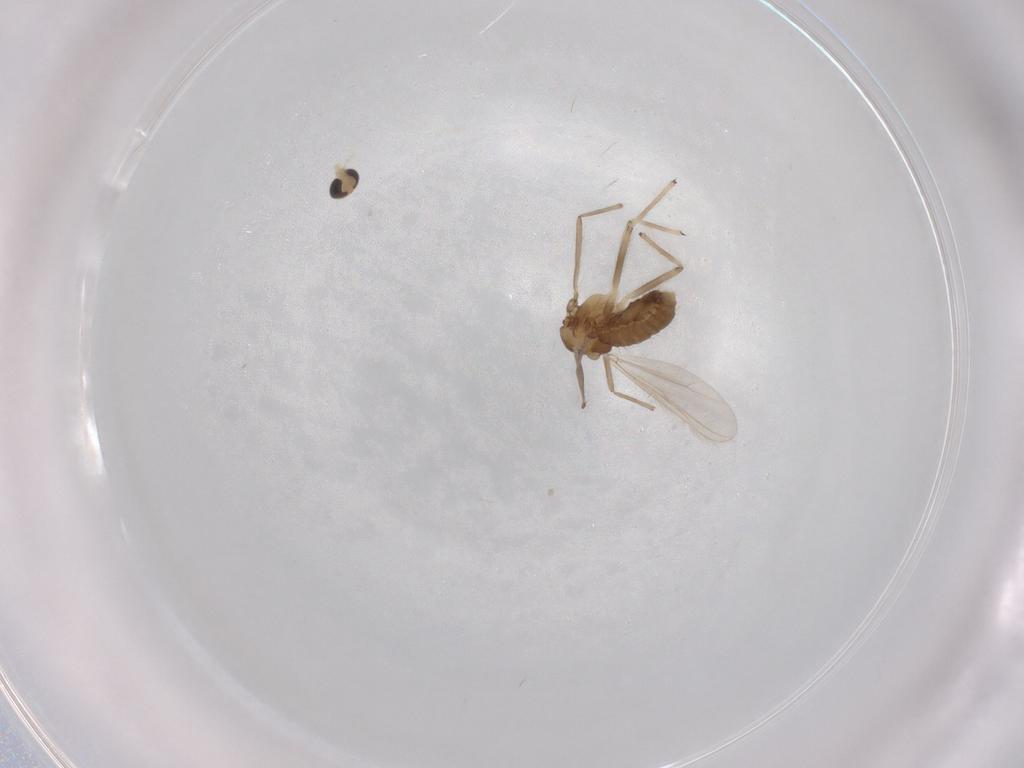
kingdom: Animalia
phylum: Arthropoda
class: Insecta
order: Diptera
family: Chironomidae
